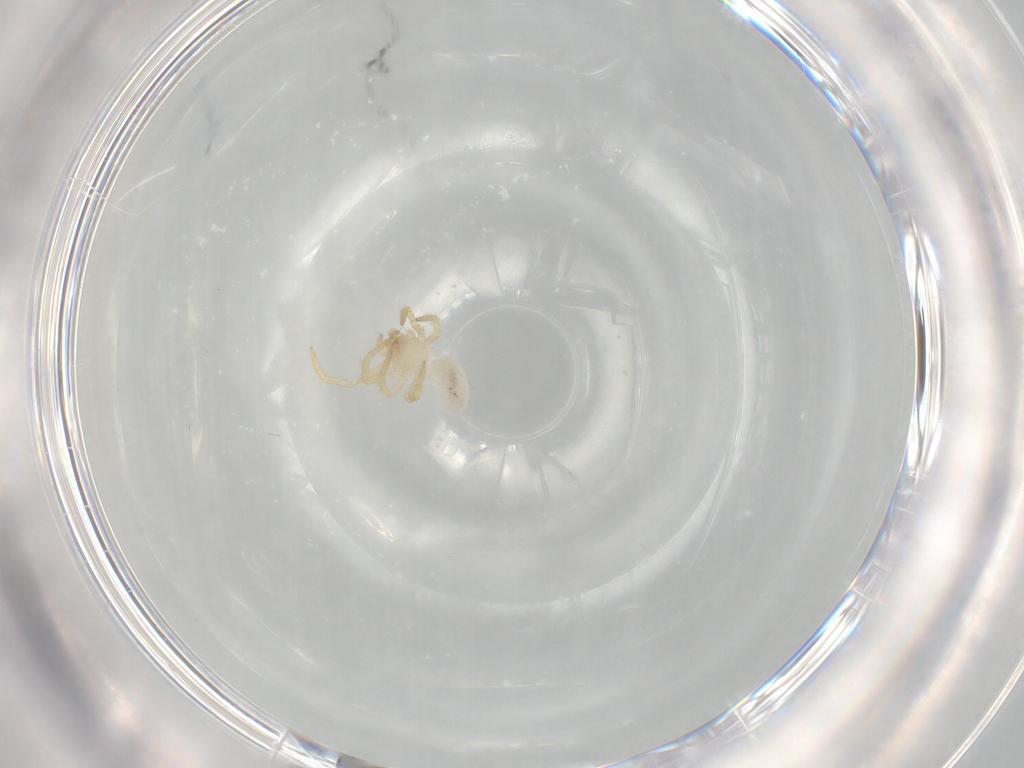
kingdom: Animalia
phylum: Arthropoda
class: Arachnida
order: Araneae
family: Theridiidae
